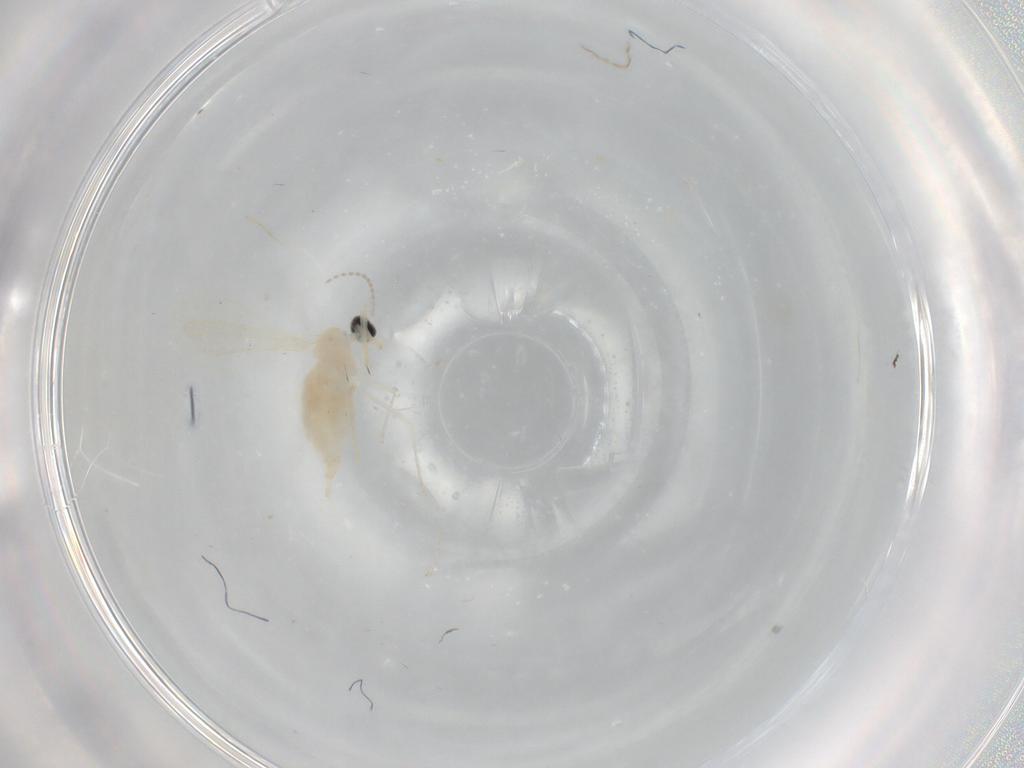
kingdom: Animalia
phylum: Arthropoda
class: Insecta
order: Diptera
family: Cecidomyiidae
